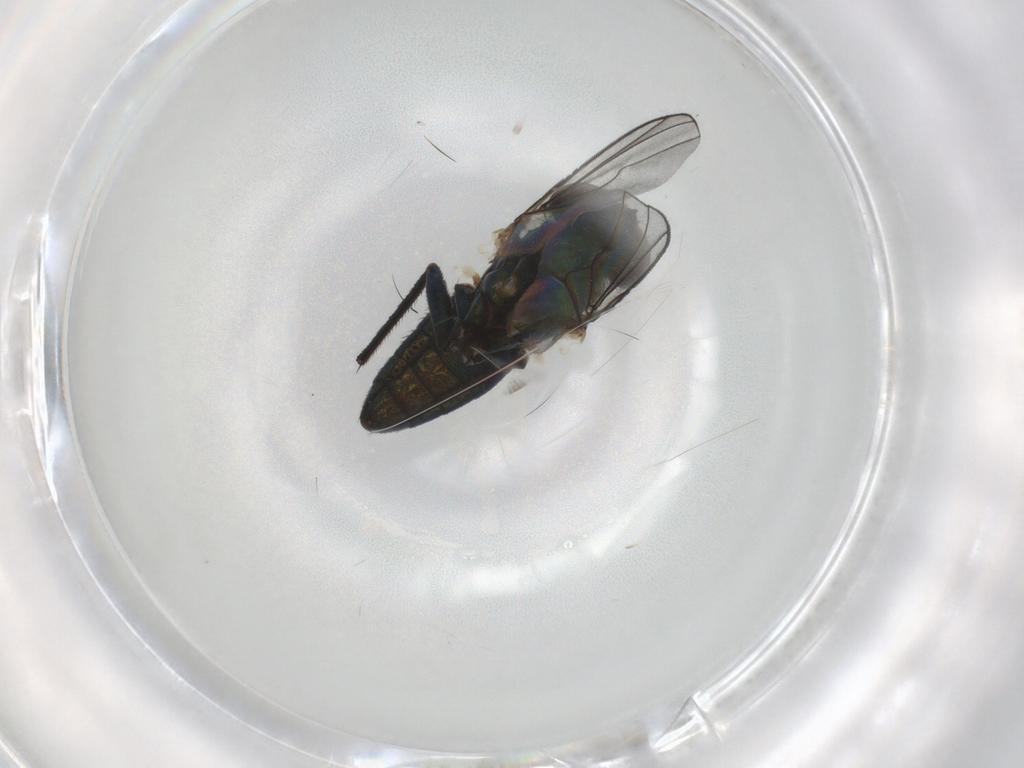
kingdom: Animalia
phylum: Arthropoda
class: Insecta
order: Diptera
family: Dolichopodidae
